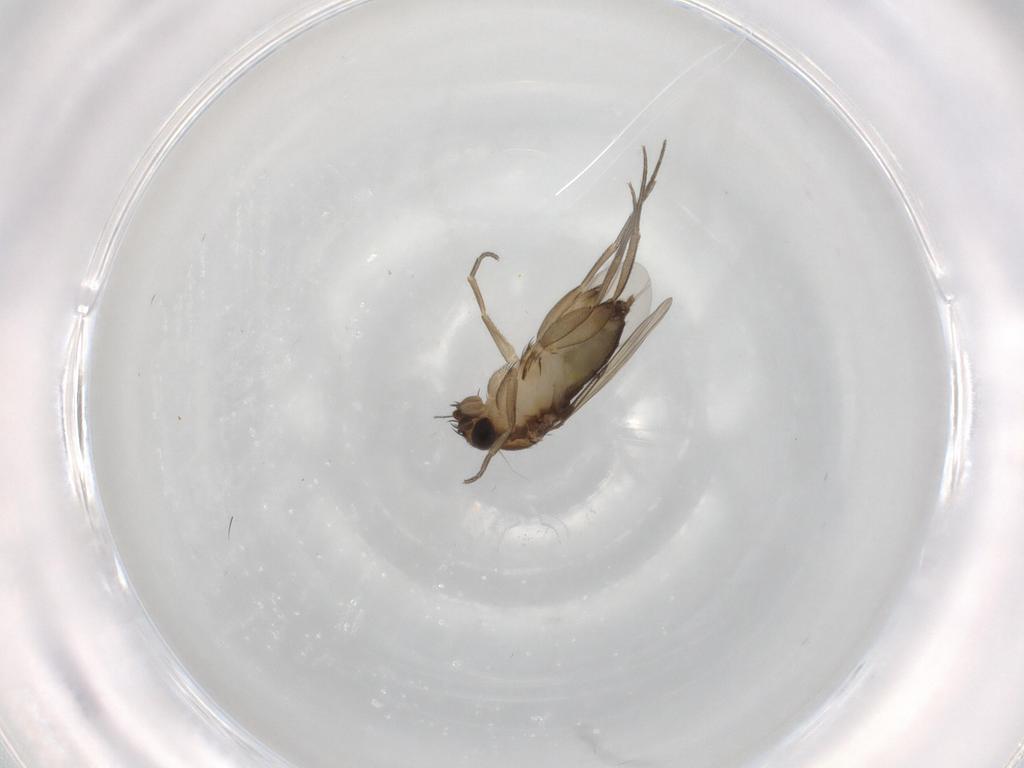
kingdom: Animalia
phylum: Arthropoda
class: Insecta
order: Diptera
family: Phoridae
